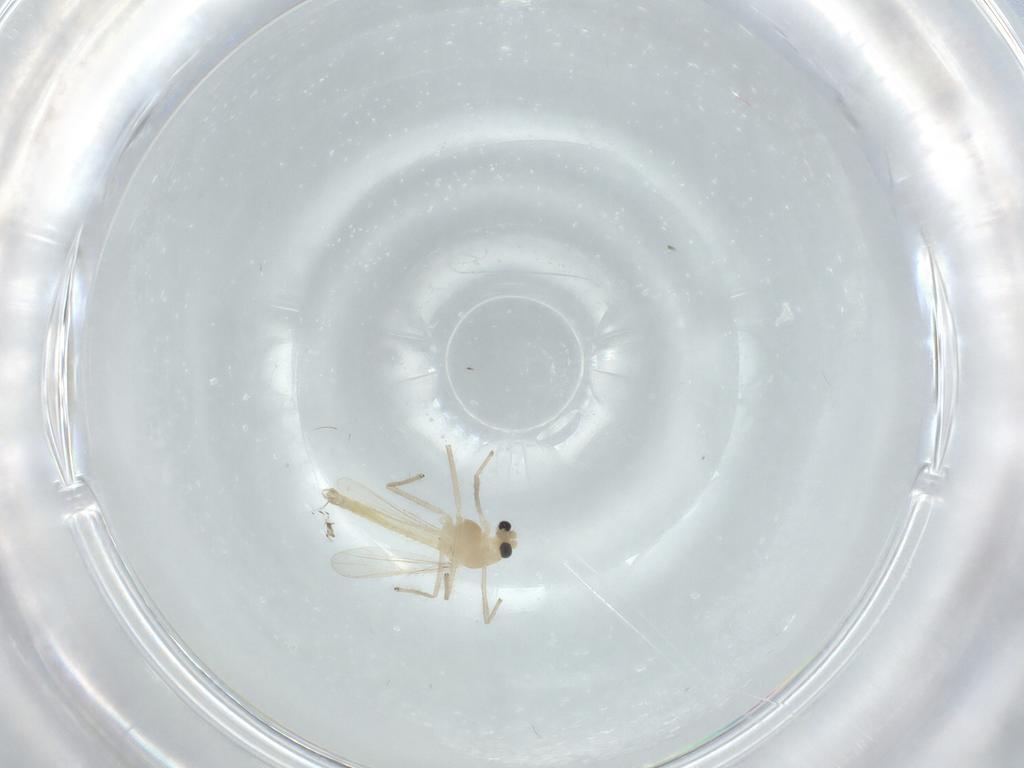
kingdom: Animalia
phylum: Arthropoda
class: Insecta
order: Diptera
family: Chironomidae
